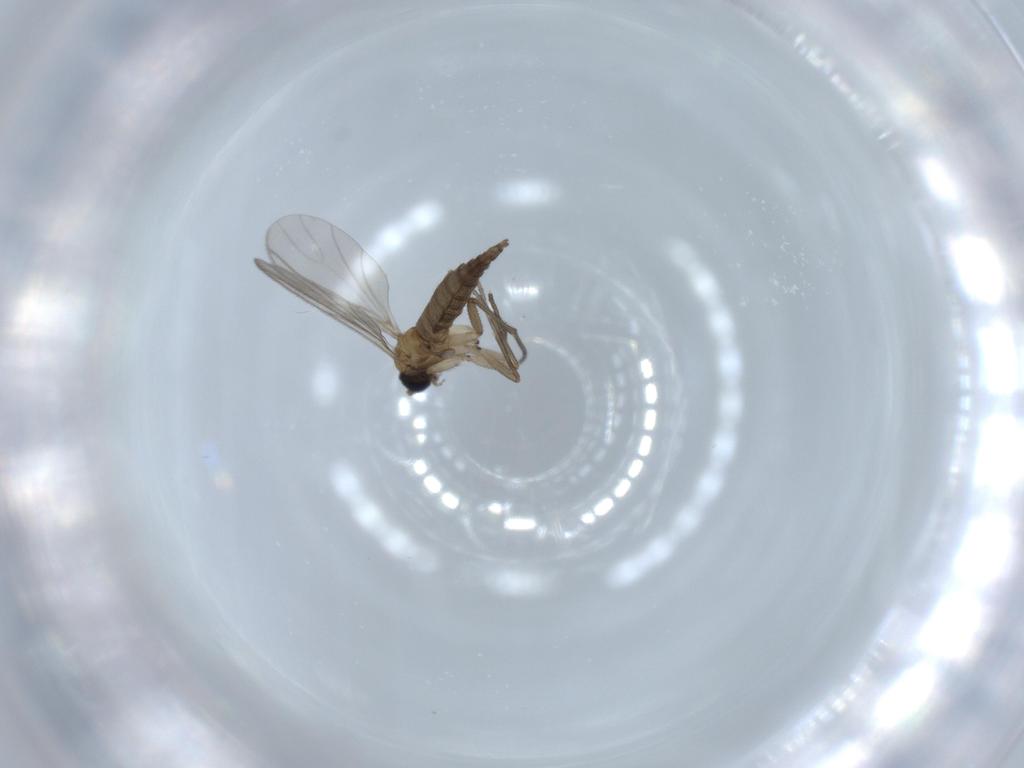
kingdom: Animalia
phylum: Arthropoda
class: Insecta
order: Diptera
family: Sciaridae
